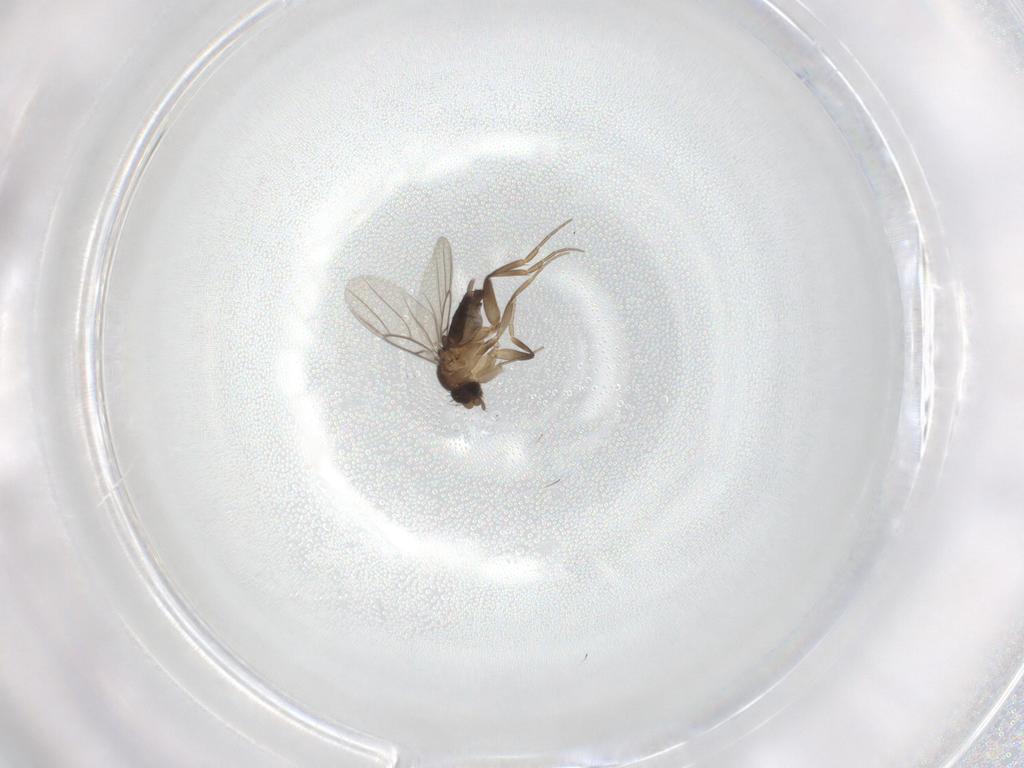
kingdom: Animalia
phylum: Arthropoda
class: Insecta
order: Diptera
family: Phoridae
